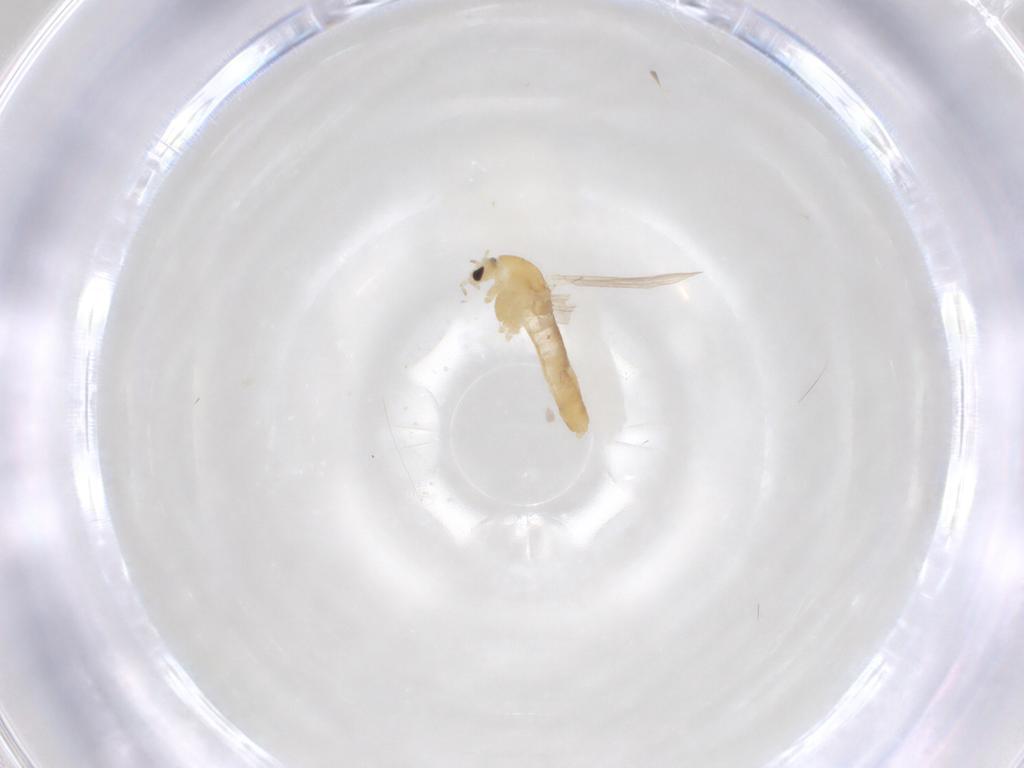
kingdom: Animalia
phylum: Arthropoda
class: Insecta
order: Diptera
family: Chironomidae
